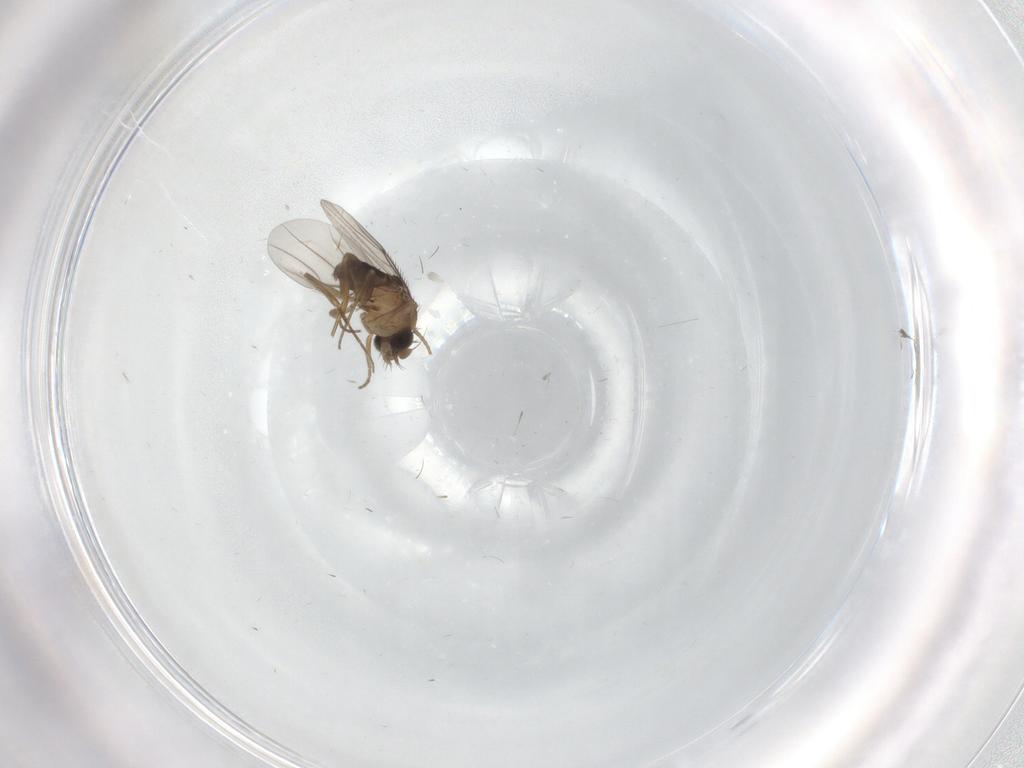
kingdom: Animalia
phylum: Arthropoda
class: Insecta
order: Diptera
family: Phoridae
